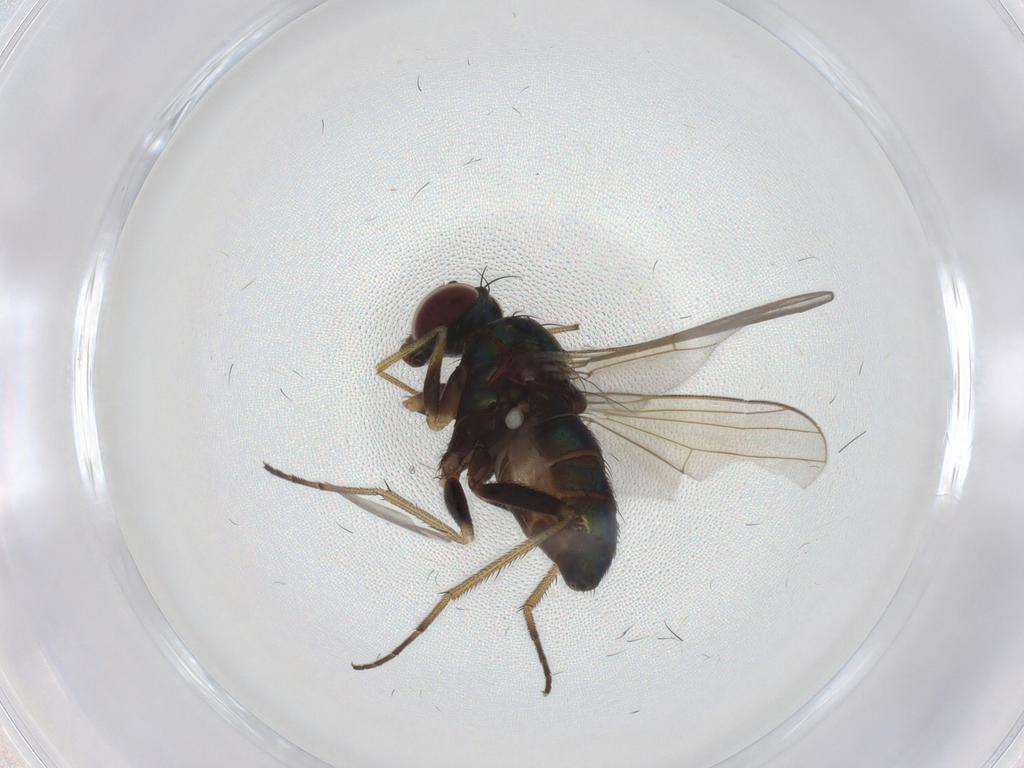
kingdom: Animalia
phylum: Arthropoda
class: Insecta
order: Diptera
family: Dolichopodidae
